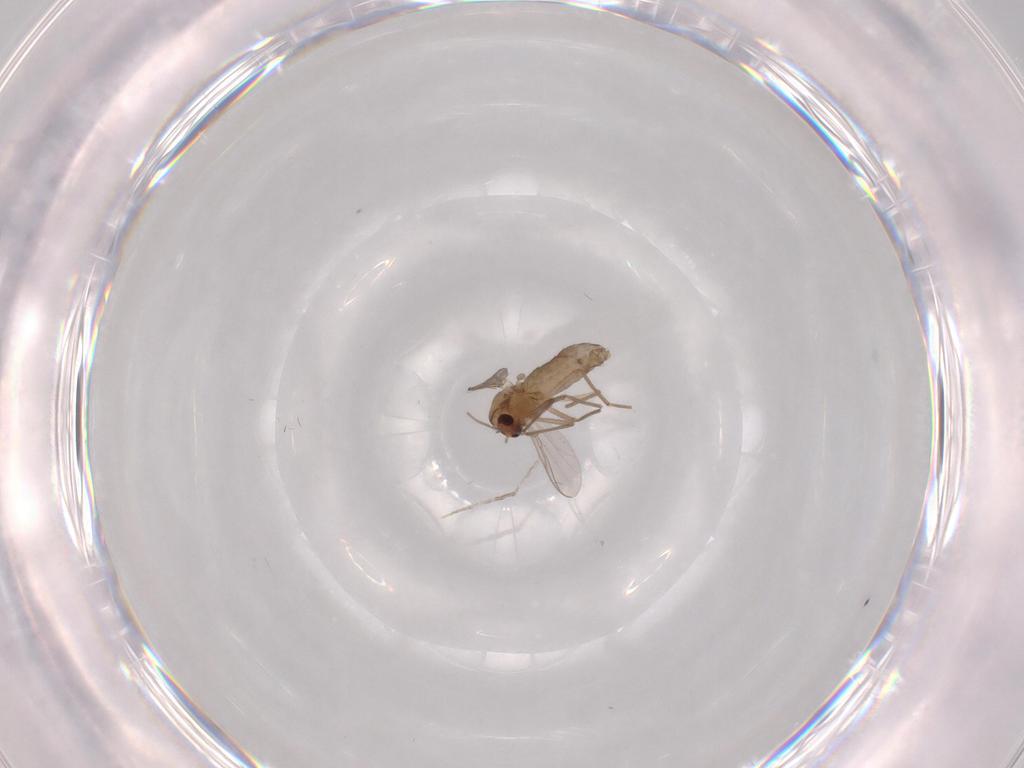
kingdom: Animalia
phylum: Arthropoda
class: Insecta
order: Diptera
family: Chironomidae
